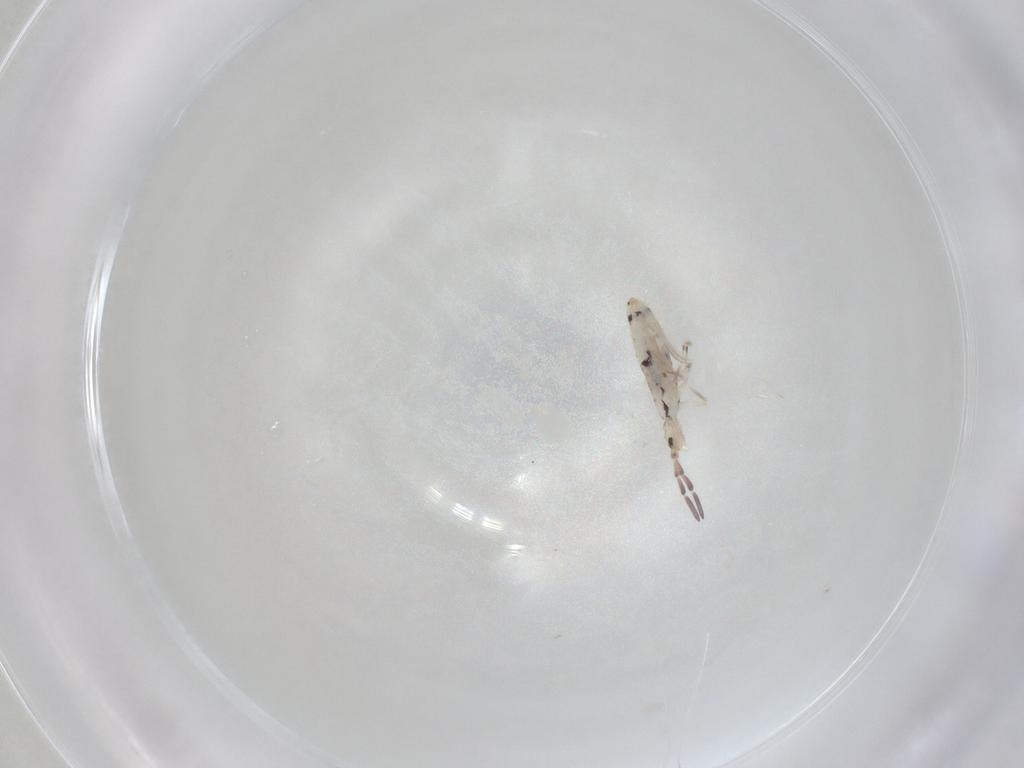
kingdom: Animalia
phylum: Arthropoda
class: Collembola
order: Entomobryomorpha
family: Entomobryidae
